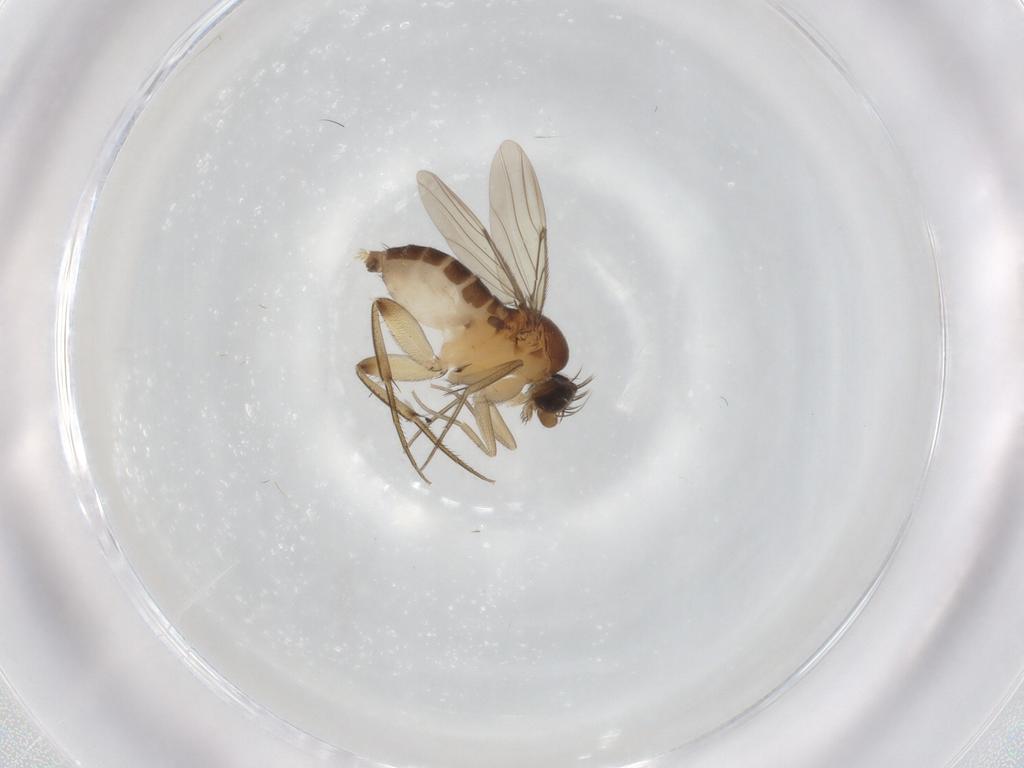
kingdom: Animalia
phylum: Arthropoda
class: Insecta
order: Diptera
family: Phoridae
